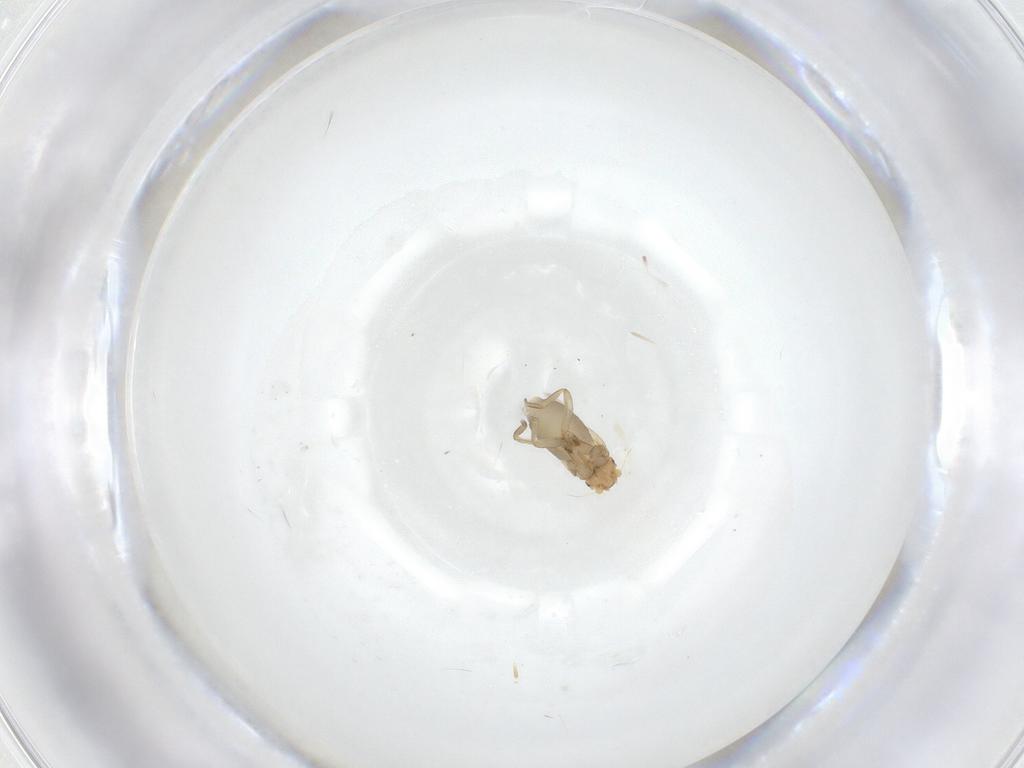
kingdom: Animalia
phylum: Arthropoda
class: Insecta
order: Diptera
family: Phoridae
